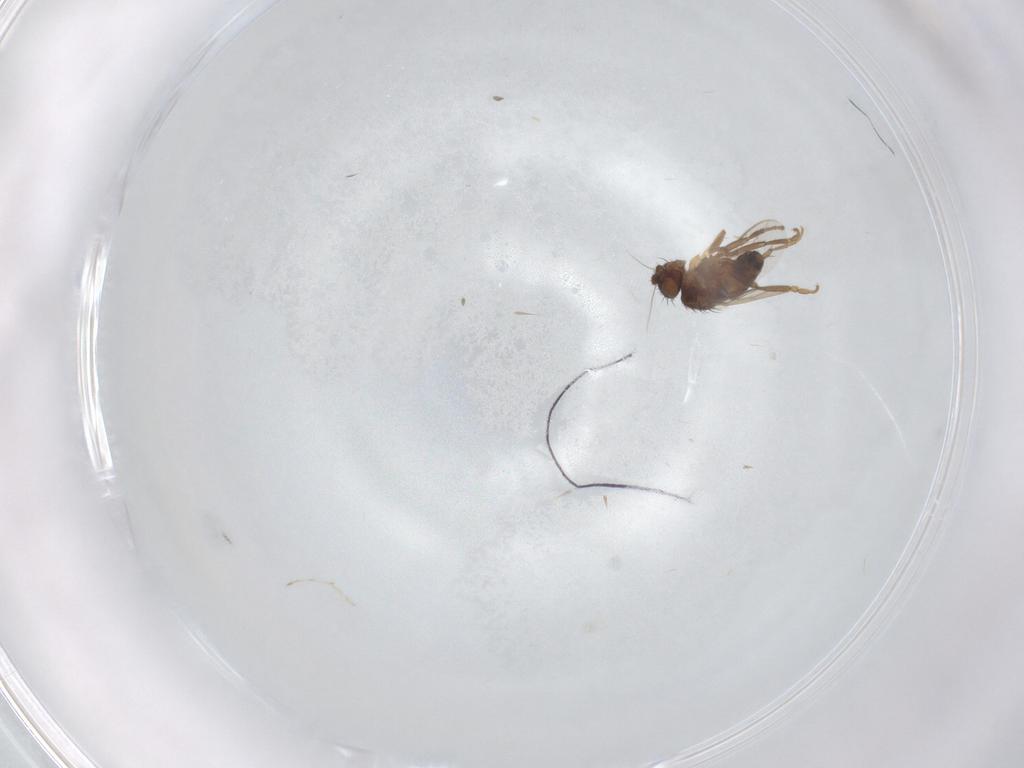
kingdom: Animalia
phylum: Arthropoda
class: Insecta
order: Diptera
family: Sphaeroceridae
